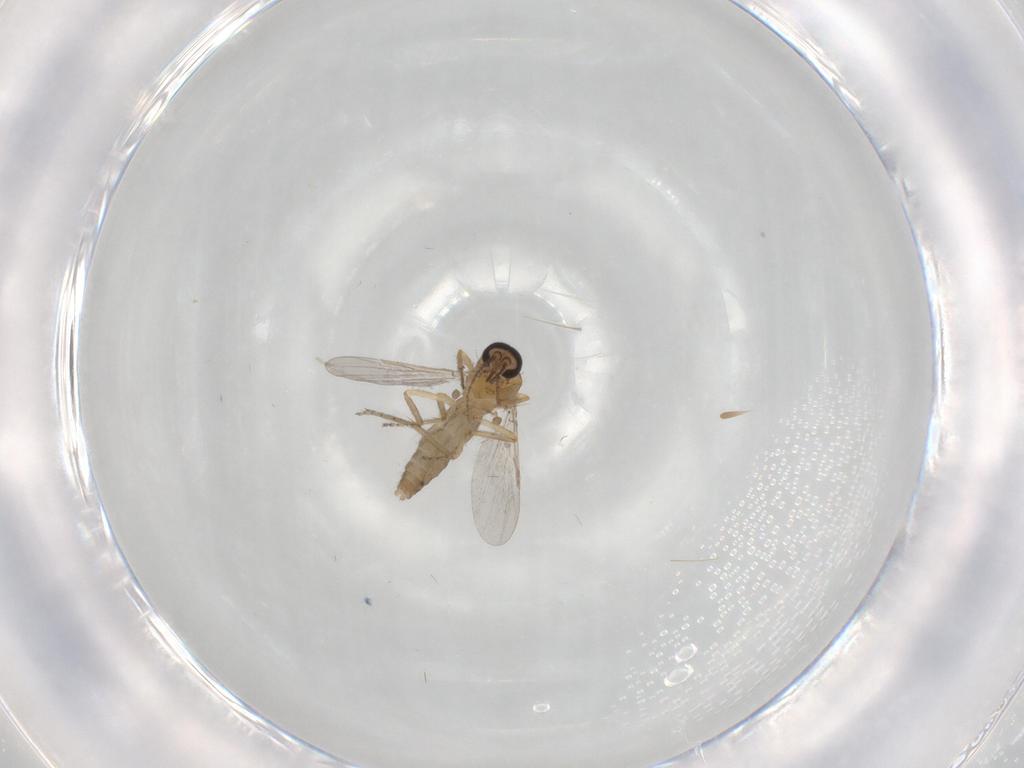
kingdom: Animalia
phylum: Arthropoda
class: Insecta
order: Diptera
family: Ceratopogonidae
